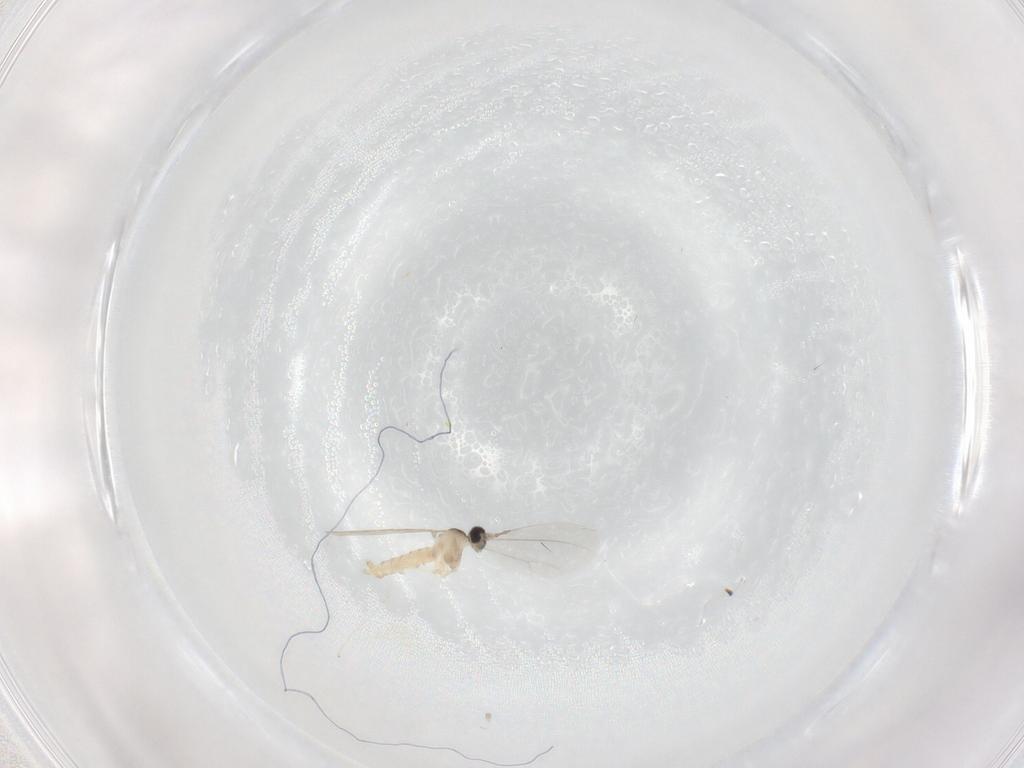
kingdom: Animalia
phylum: Arthropoda
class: Insecta
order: Diptera
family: Cecidomyiidae
